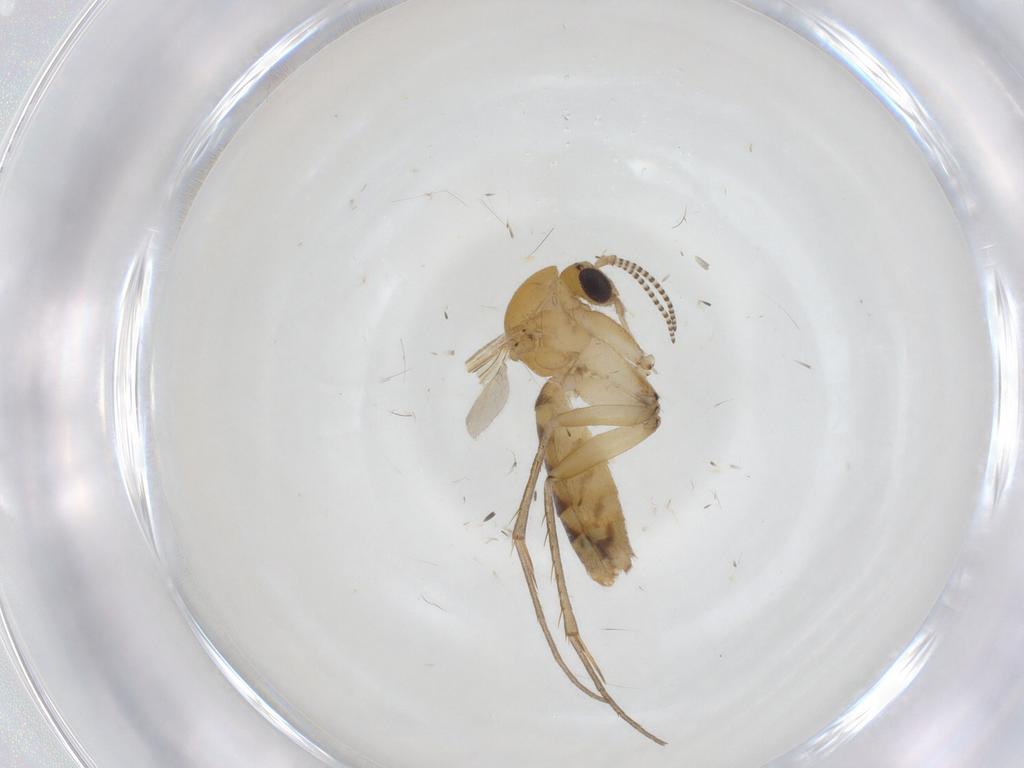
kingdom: Animalia
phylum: Arthropoda
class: Insecta
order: Diptera
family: Mycetophilidae
